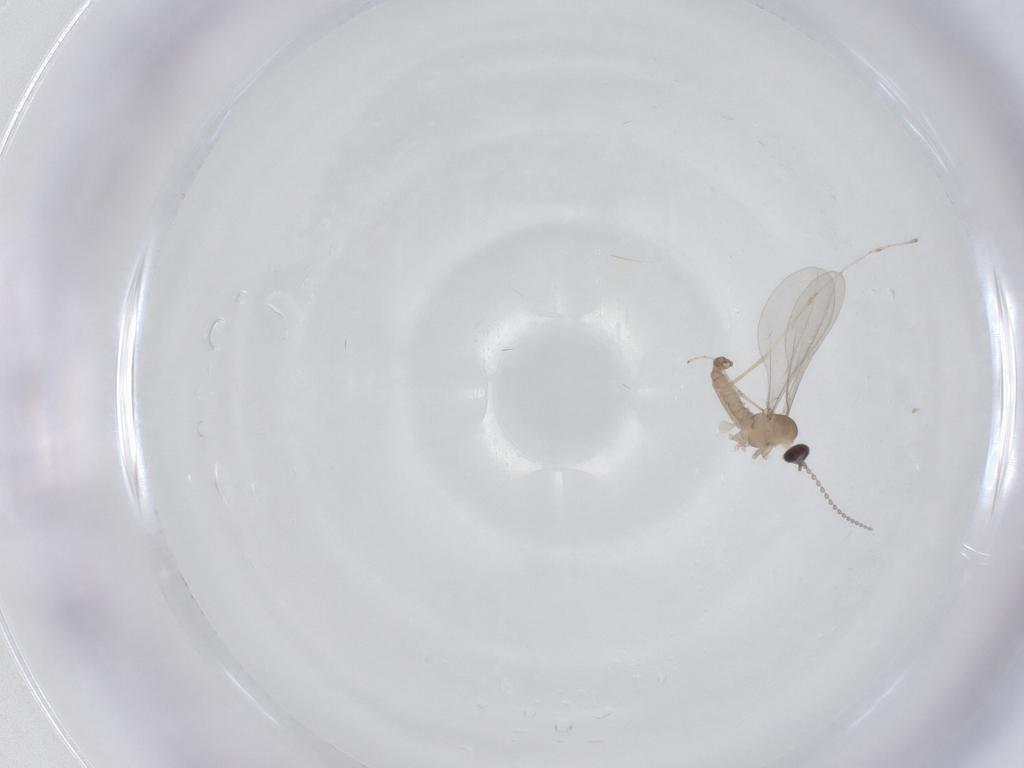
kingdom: Animalia
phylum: Arthropoda
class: Insecta
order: Diptera
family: Cecidomyiidae
